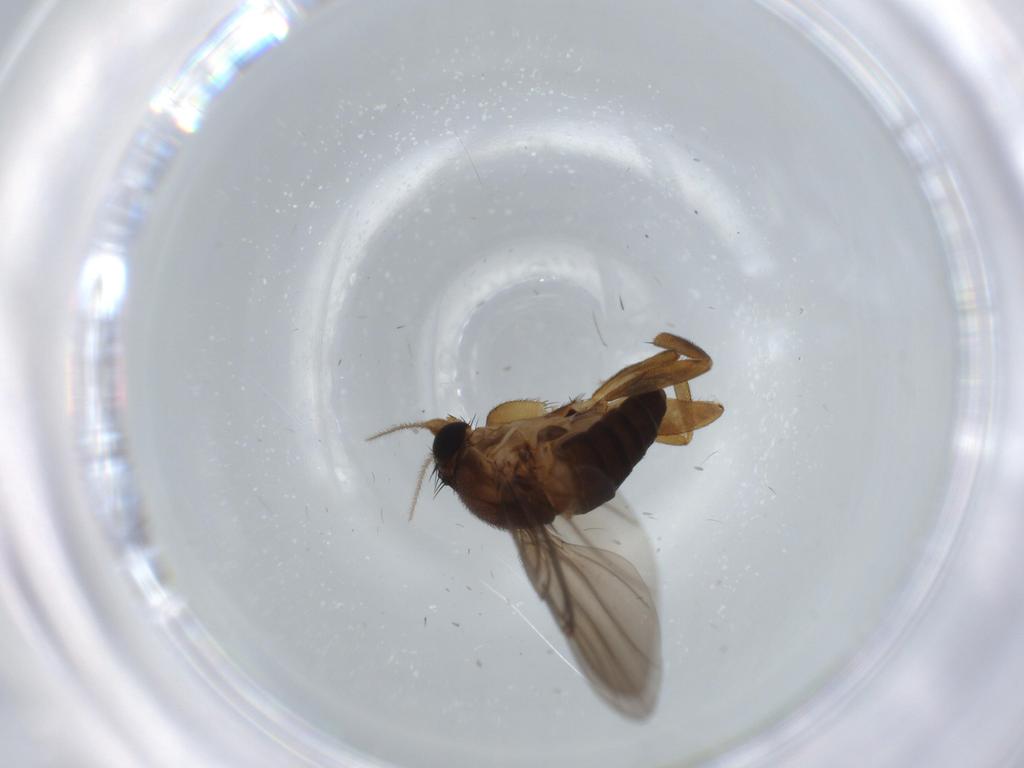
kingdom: Animalia
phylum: Arthropoda
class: Insecta
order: Diptera
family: Cecidomyiidae
